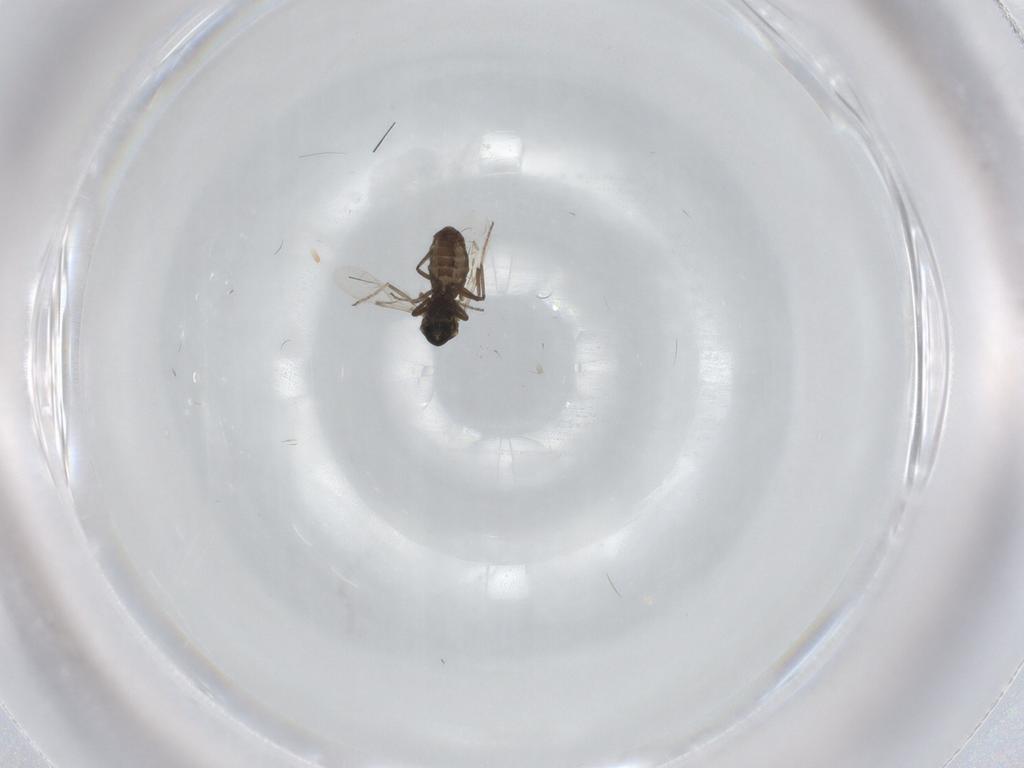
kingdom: Animalia
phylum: Arthropoda
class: Insecta
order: Diptera
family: Ceratopogonidae
